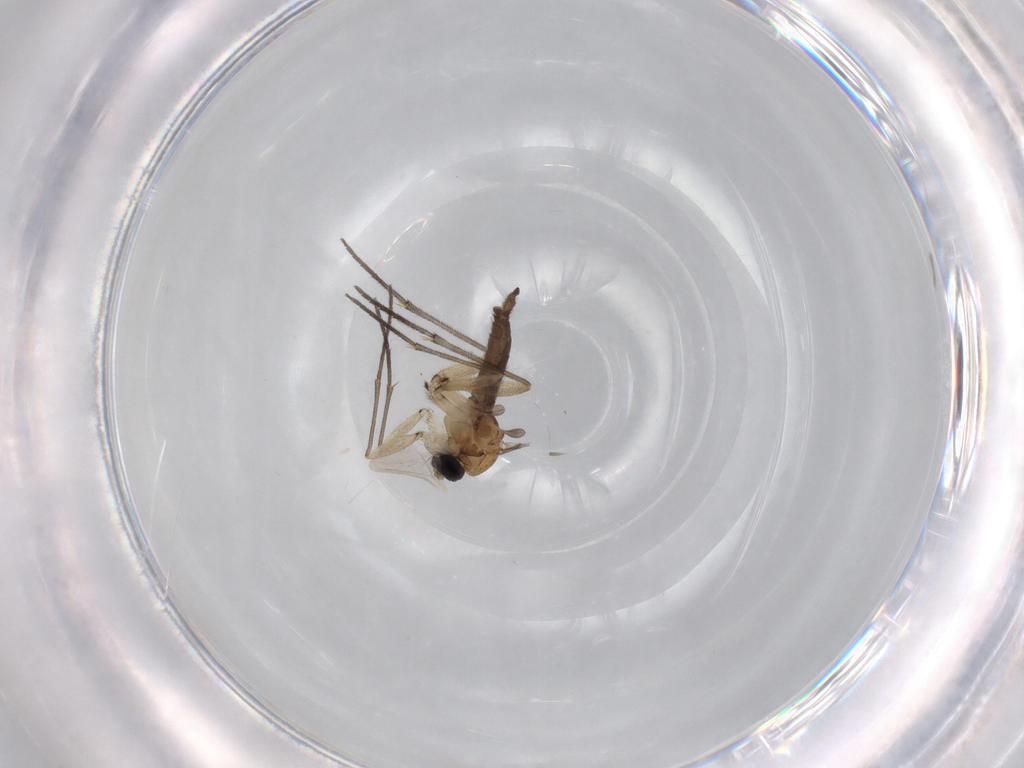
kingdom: Animalia
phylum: Arthropoda
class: Insecta
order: Diptera
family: Sciaridae
